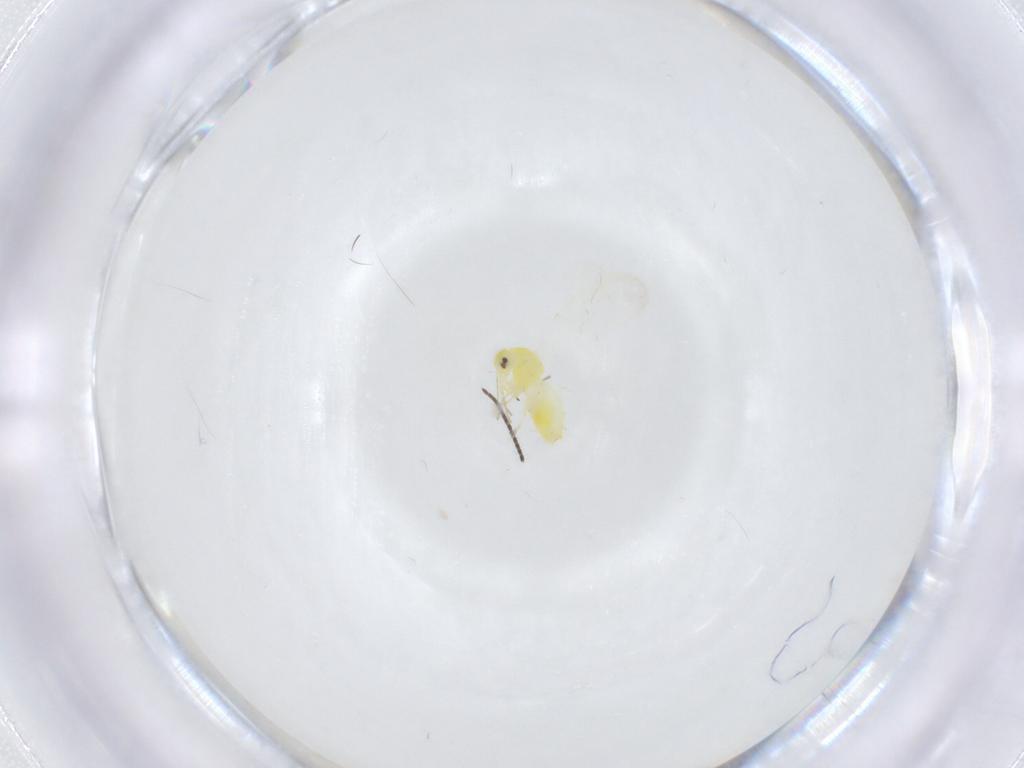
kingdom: Animalia
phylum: Arthropoda
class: Insecta
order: Hemiptera
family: Aleyrodidae
